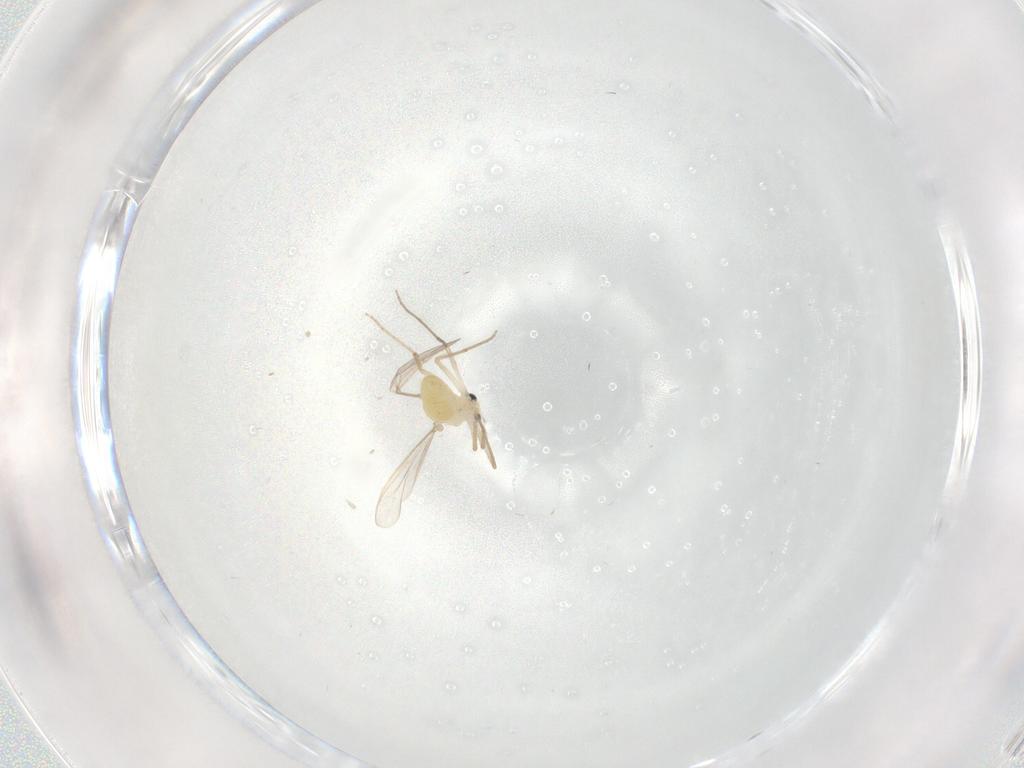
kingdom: Animalia
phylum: Arthropoda
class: Insecta
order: Diptera
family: Chironomidae
